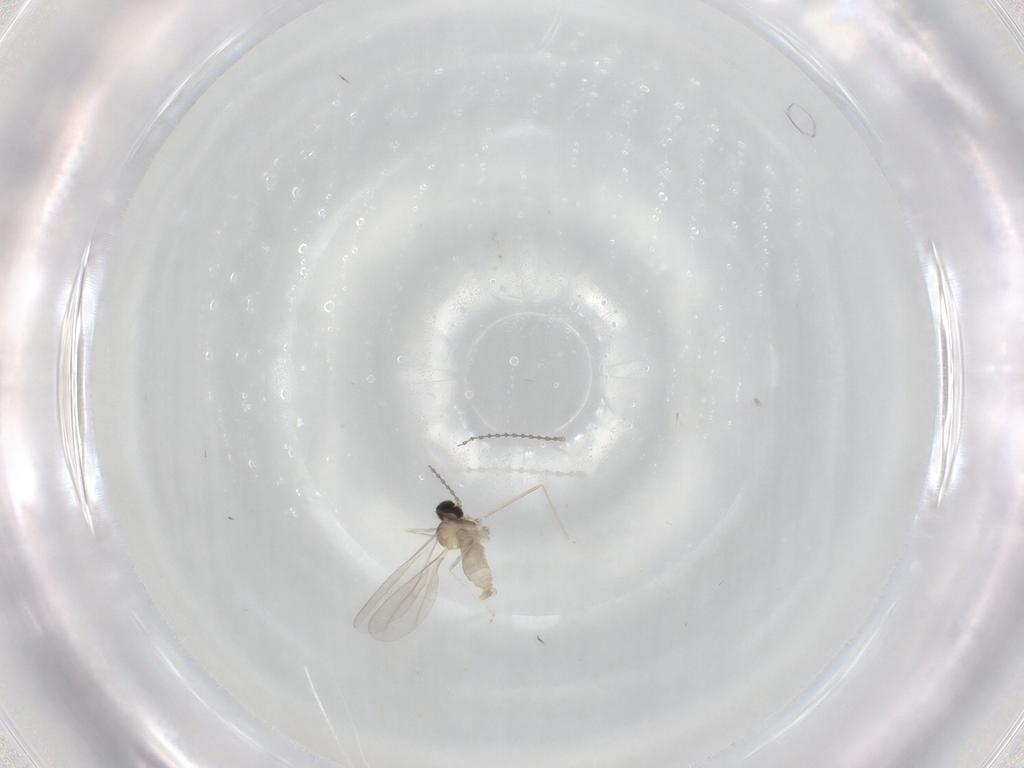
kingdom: Animalia
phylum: Arthropoda
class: Insecta
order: Diptera
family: Cecidomyiidae
